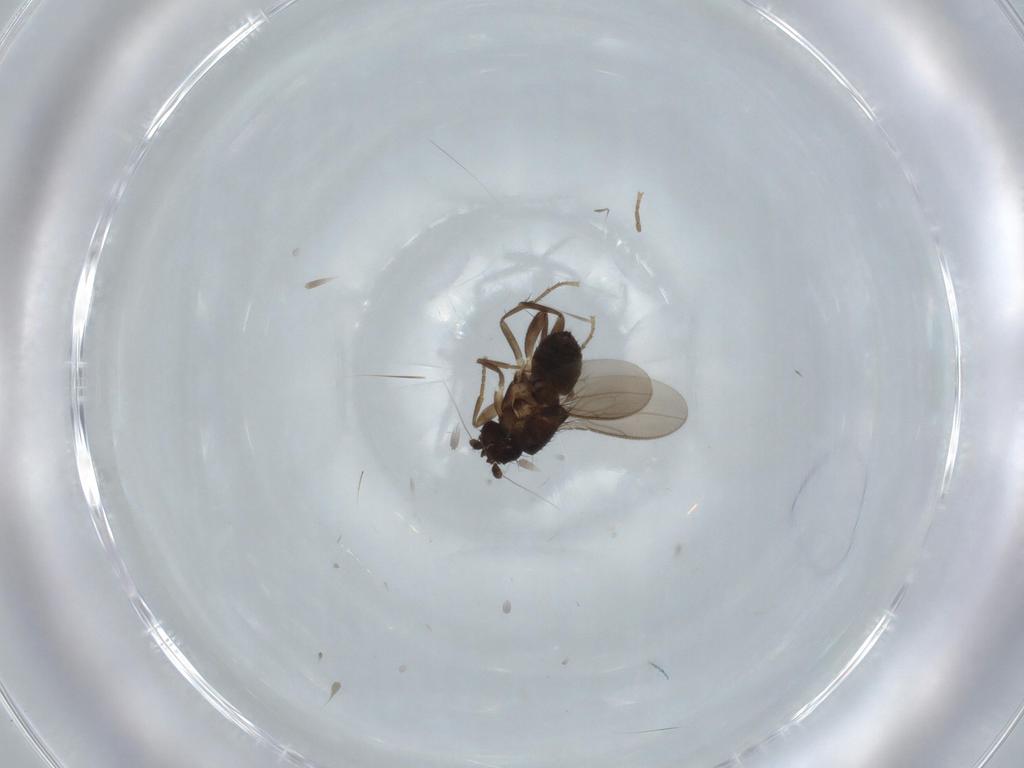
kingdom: Animalia
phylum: Arthropoda
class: Insecta
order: Diptera
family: Sphaeroceridae
